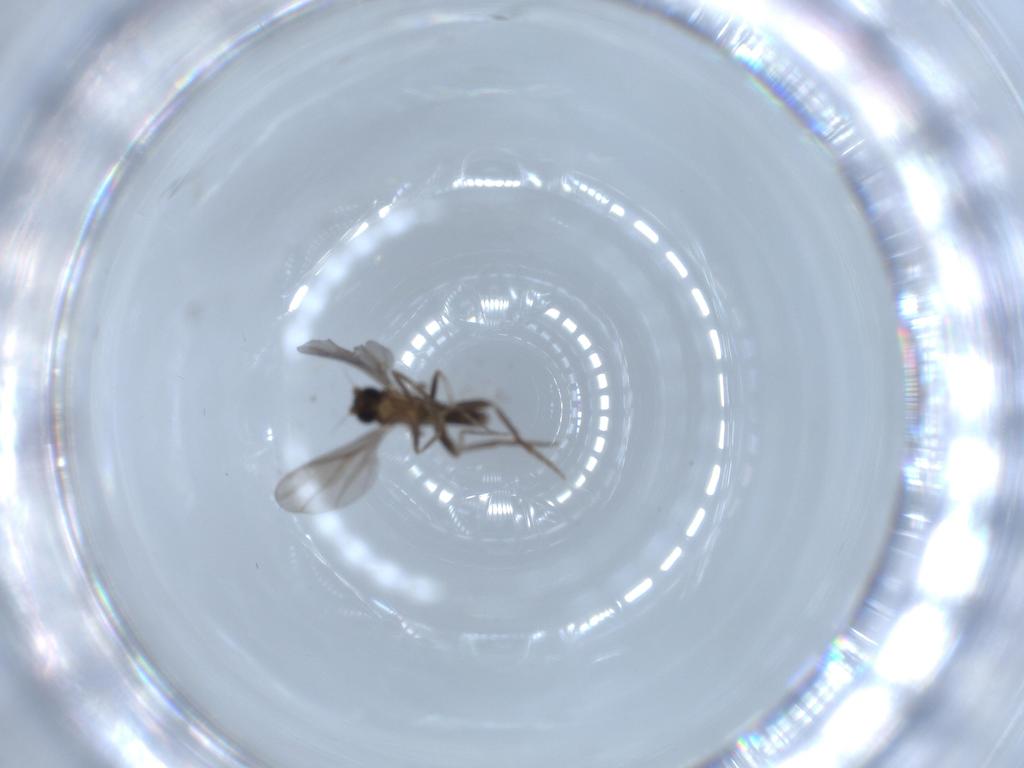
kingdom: Animalia
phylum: Arthropoda
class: Insecta
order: Diptera
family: Phoridae
